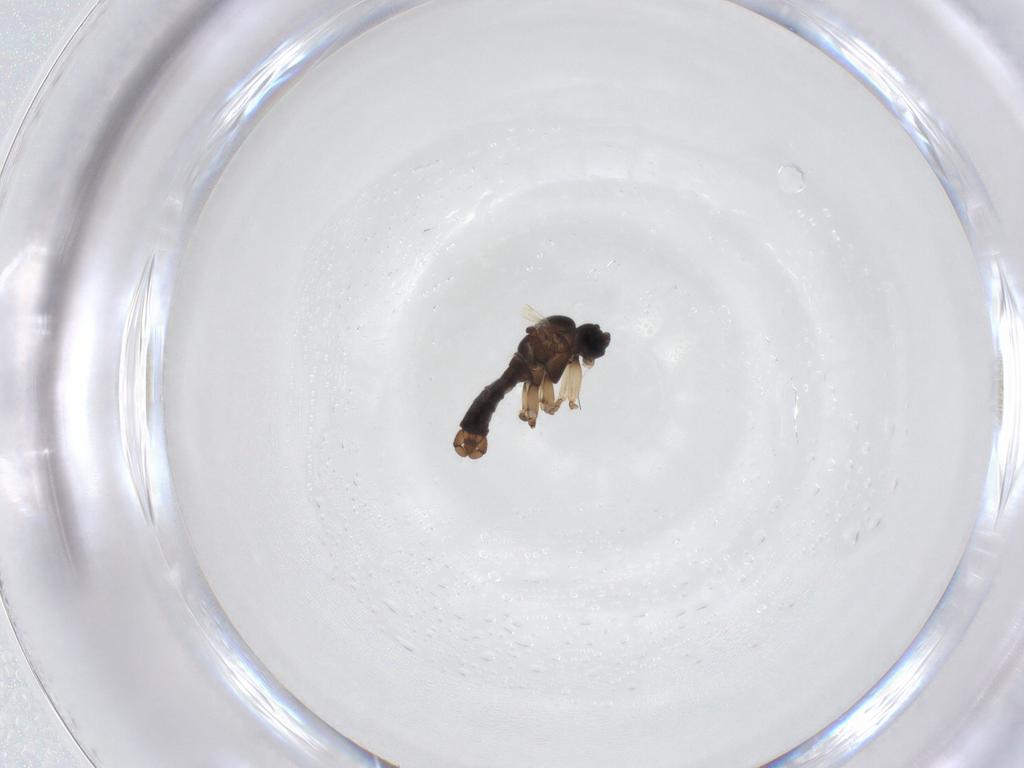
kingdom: Animalia
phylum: Arthropoda
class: Insecta
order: Diptera
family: Sciaridae
